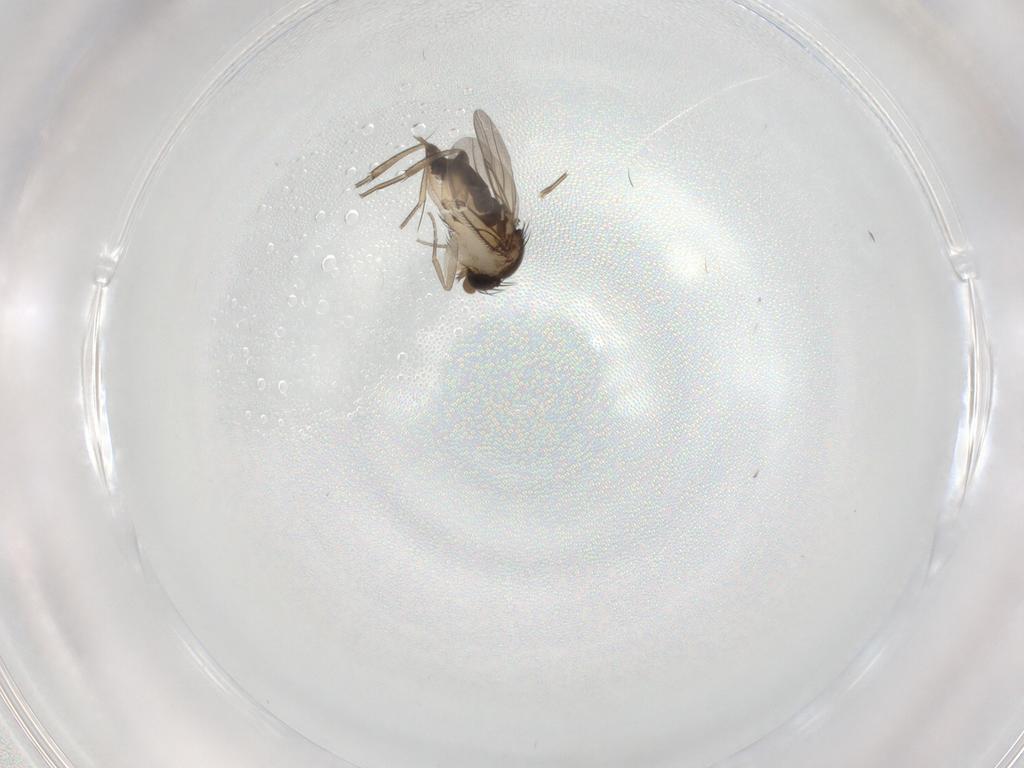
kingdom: Animalia
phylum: Arthropoda
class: Insecta
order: Diptera
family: Phoridae
